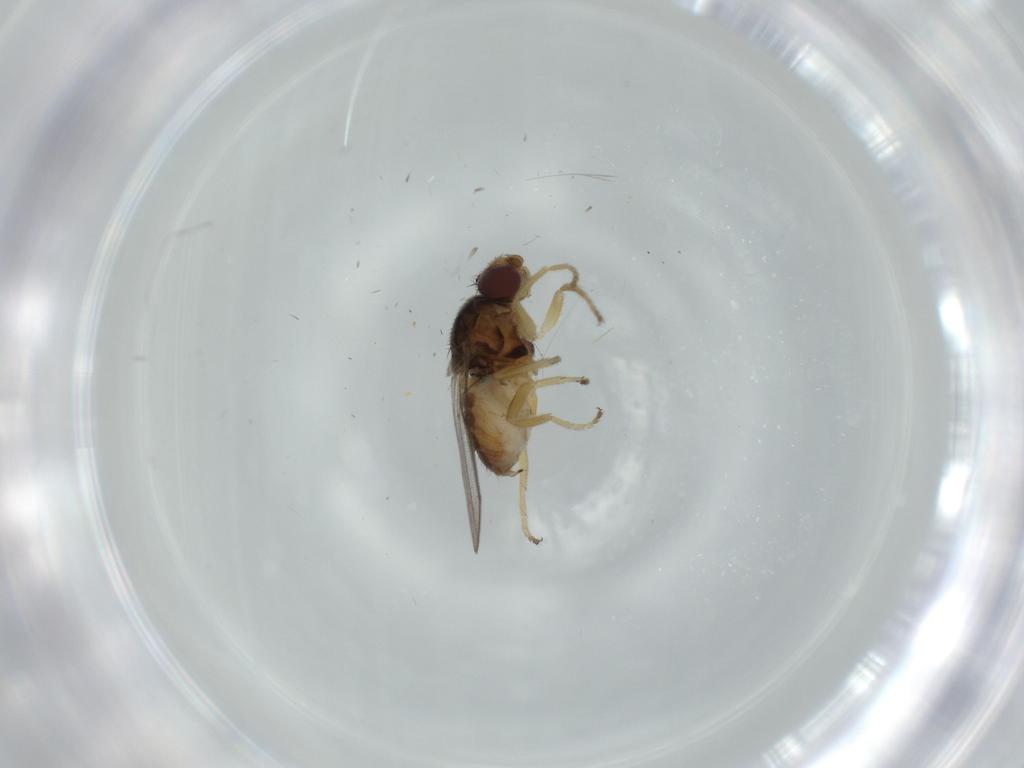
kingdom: Animalia
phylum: Arthropoda
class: Insecta
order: Diptera
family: Chloropidae
